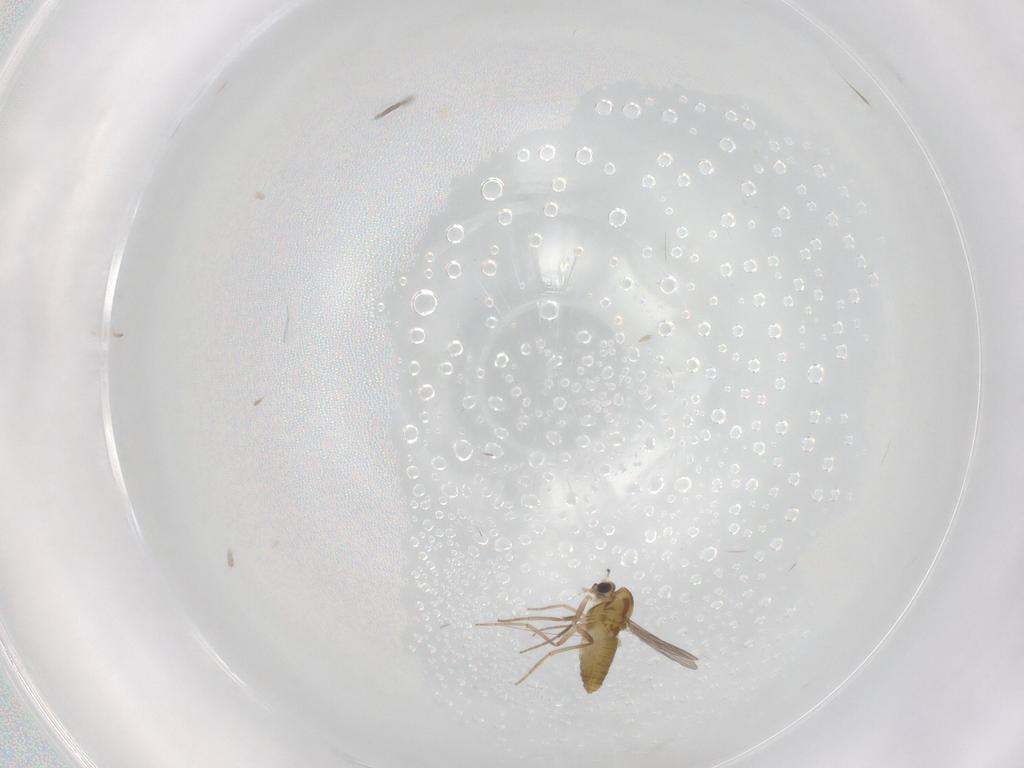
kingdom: Animalia
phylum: Arthropoda
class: Insecta
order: Diptera
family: Chironomidae
